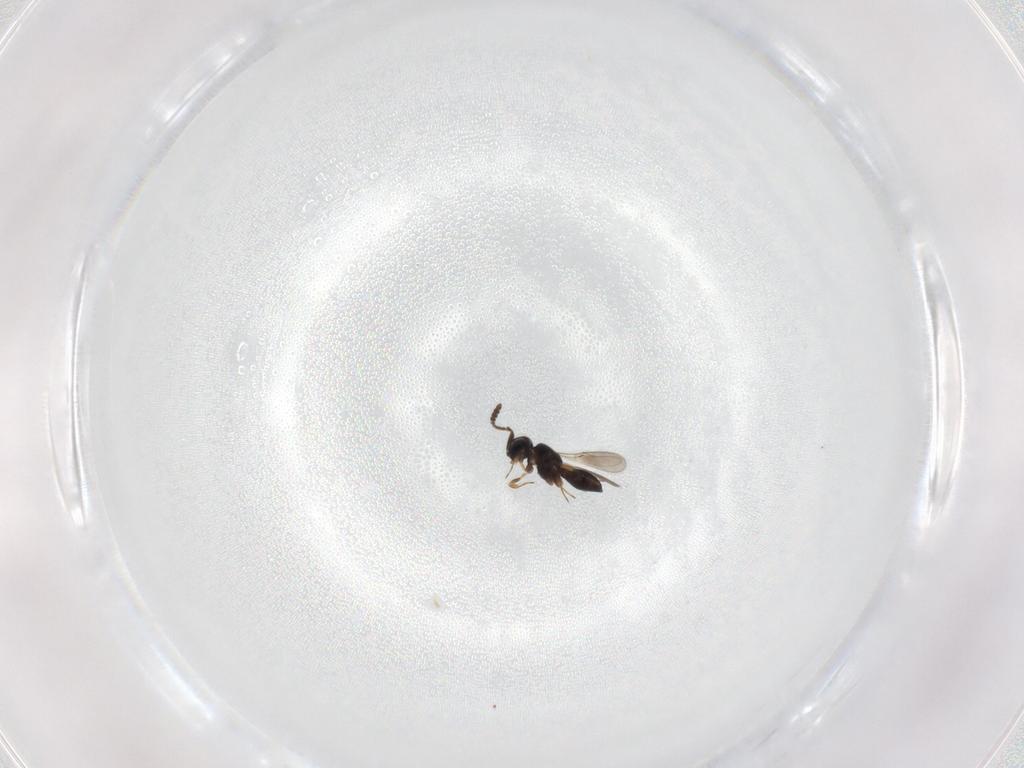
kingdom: Animalia
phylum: Arthropoda
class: Insecta
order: Hymenoptera
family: Scelionidae
